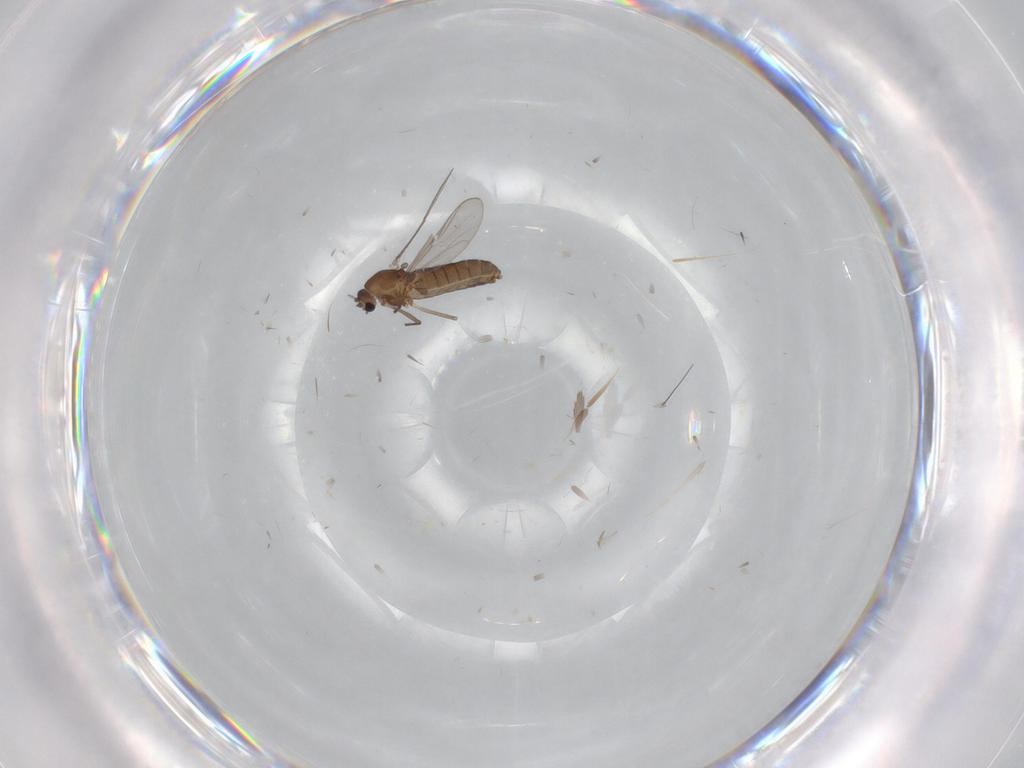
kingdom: Animalia
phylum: Arthropoda
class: Insecta
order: Diptera
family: Chironomidae
